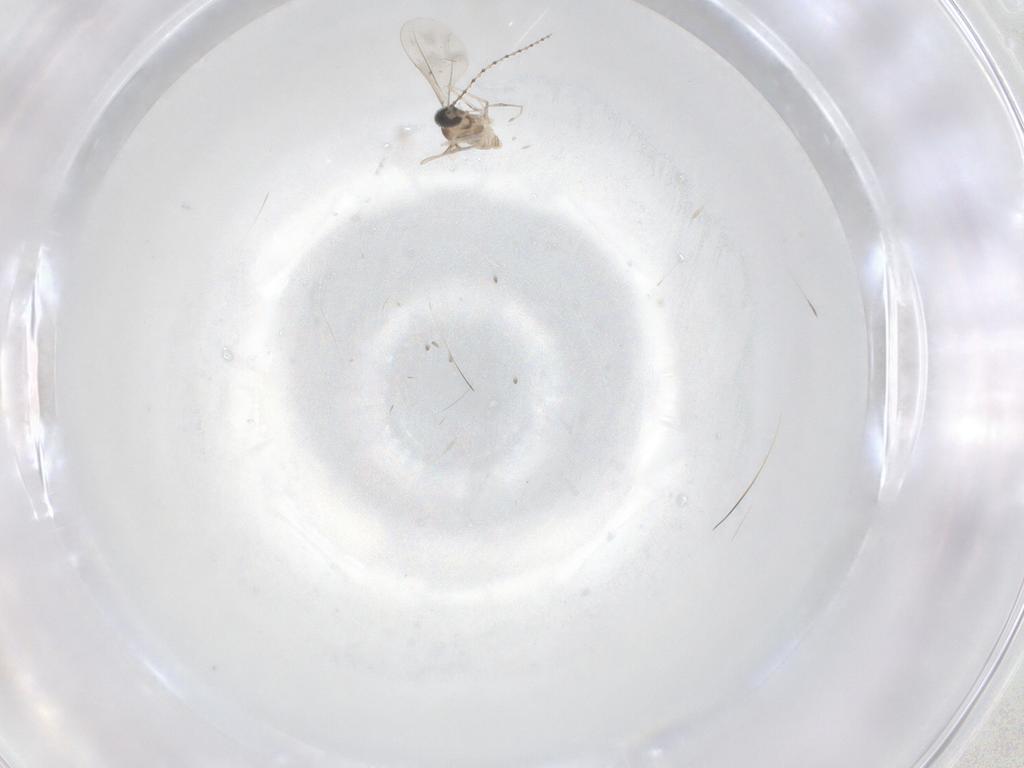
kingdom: Animalia
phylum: Arthropoda
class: Insecta
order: Diptera
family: Cecidomyiidae
